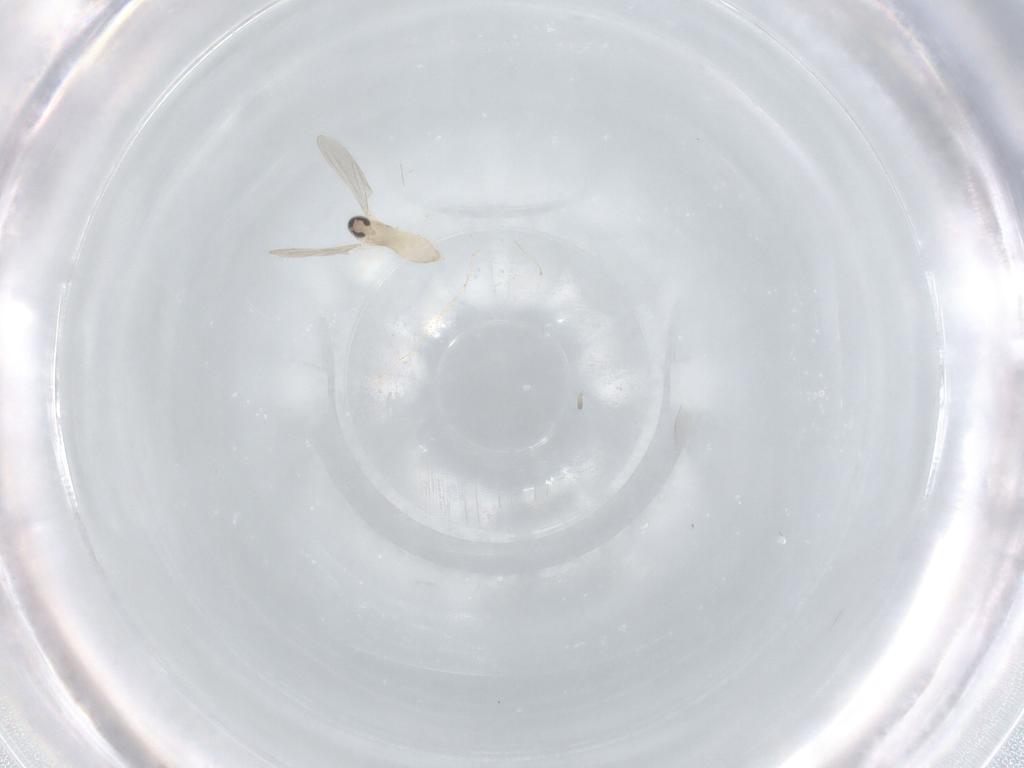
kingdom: Animalia
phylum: Arthropoda
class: Insecta
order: Diptera
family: Cecidomyiidae
